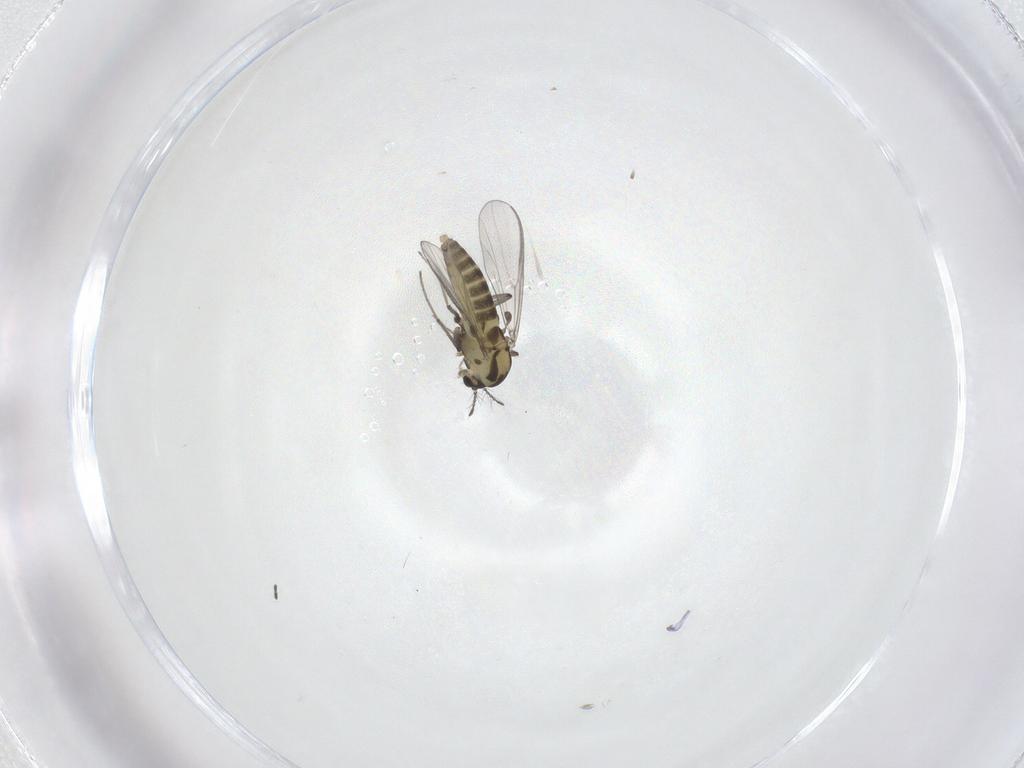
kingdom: Animalia
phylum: Arthropoda
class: Insecta
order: Diptera
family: Chironomidae
